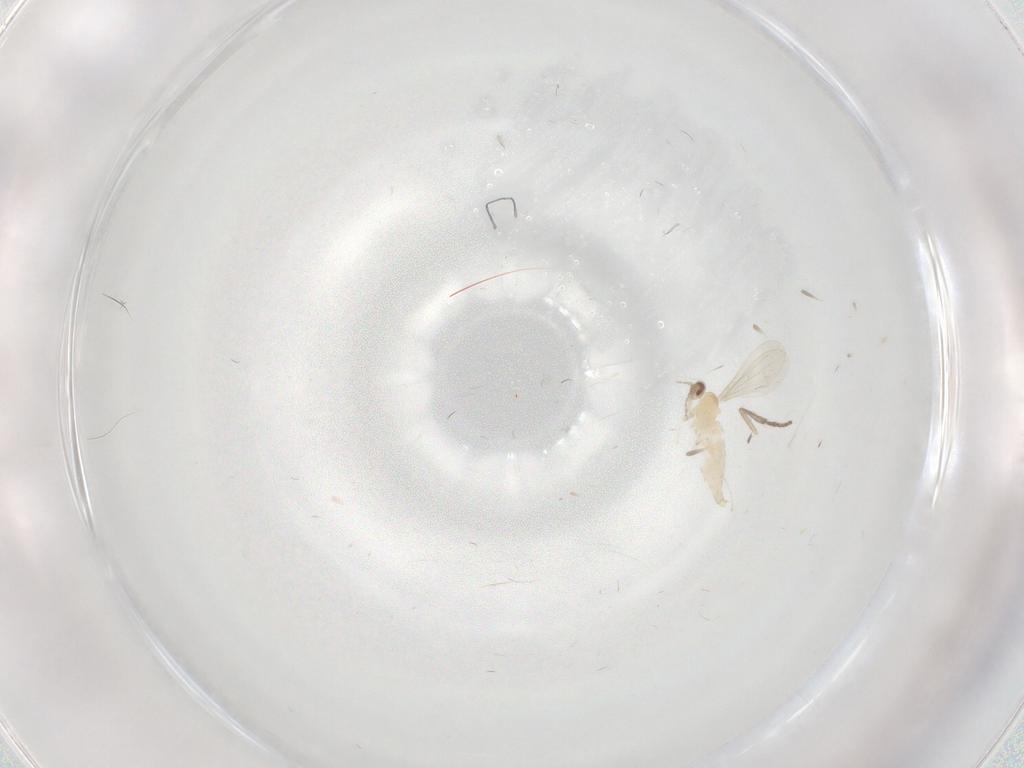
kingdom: Animalia
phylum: Arthropoda
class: Insecta
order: Diptera
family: Psychodidae
